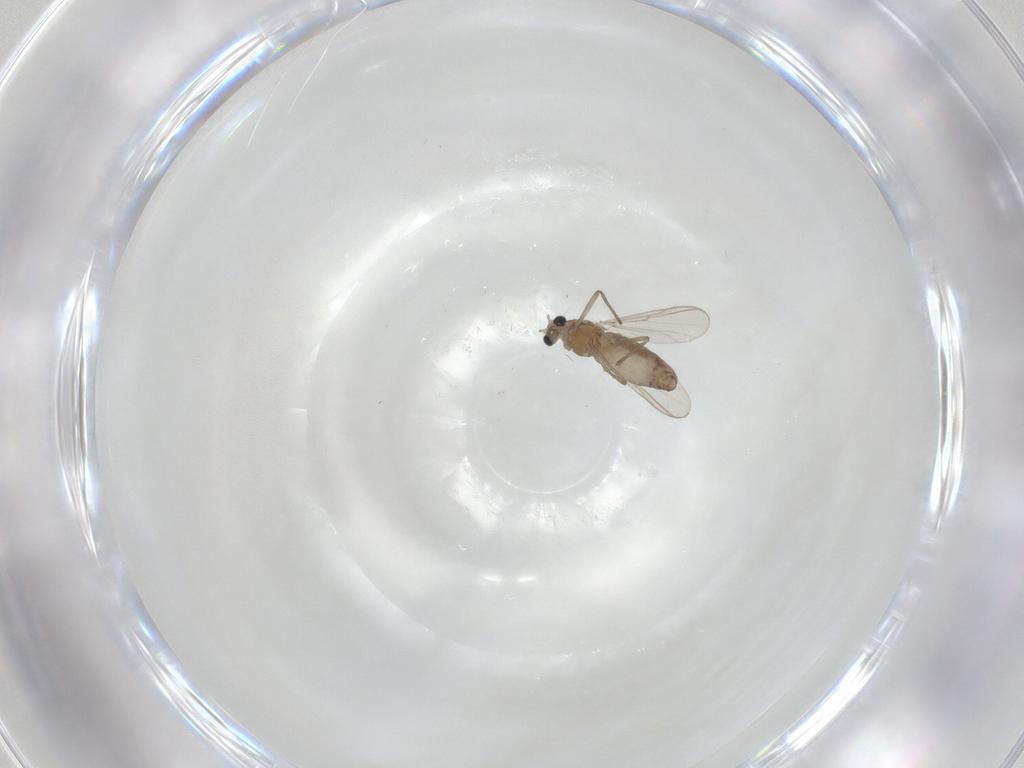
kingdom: Animalia
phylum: Arthropoda
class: Insecta
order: Diptera
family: Chironomidae
